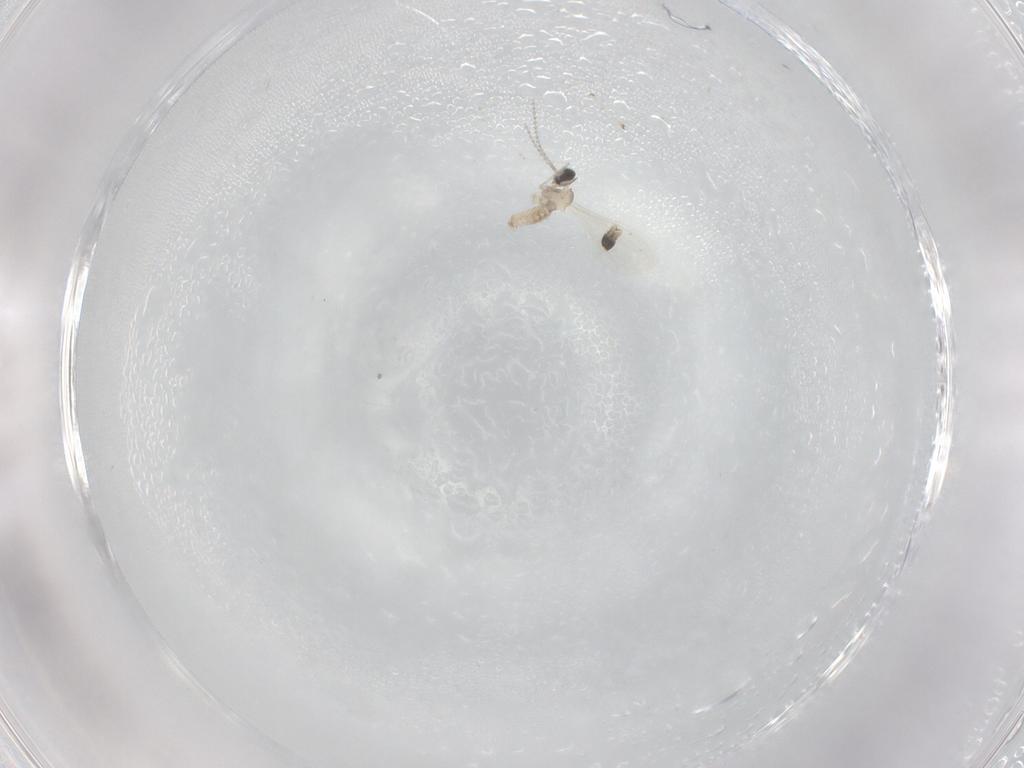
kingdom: Animalia
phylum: Arthropoda
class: Insecta
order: Diptera
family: Cecidomyiidae
